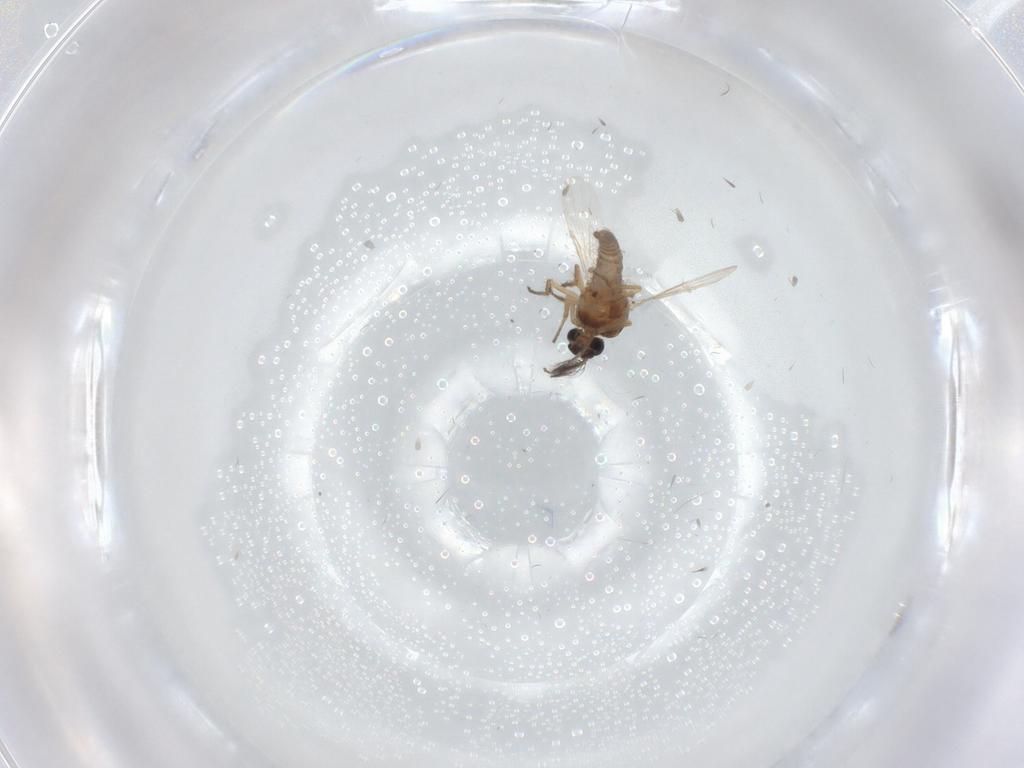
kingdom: Animalia
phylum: Arthropoda
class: Insecta
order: Diptera
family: Ceratopogonidae
